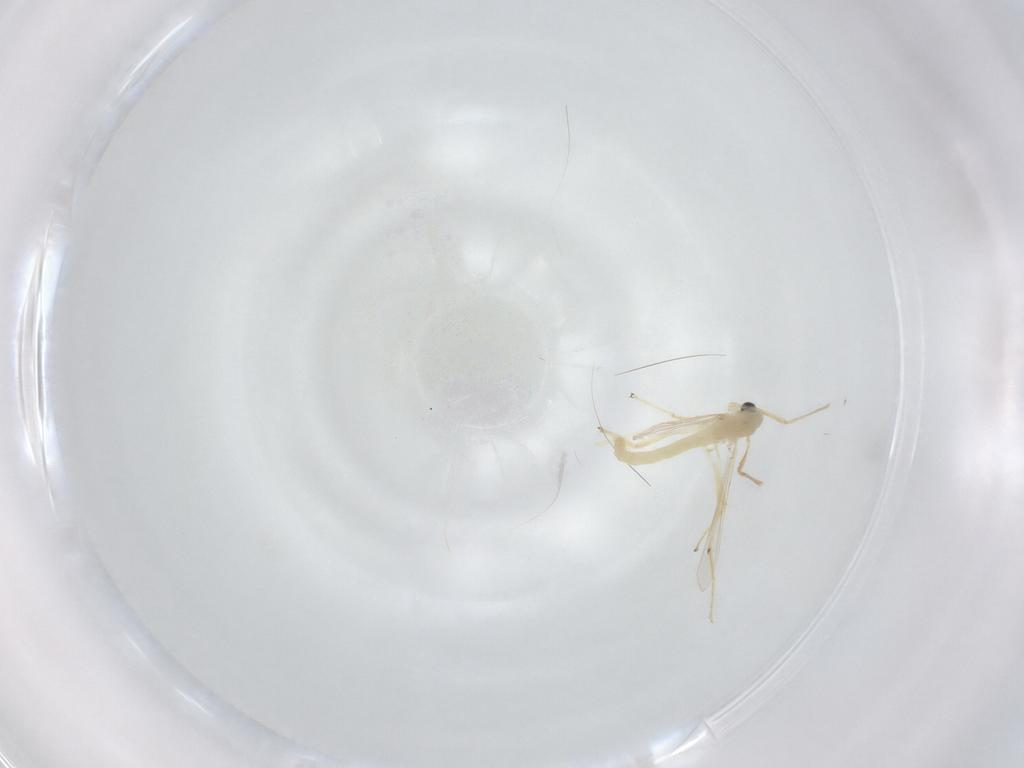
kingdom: Animalia
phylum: Arthropoda
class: Insecta
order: Diptera
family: Chironomidae
